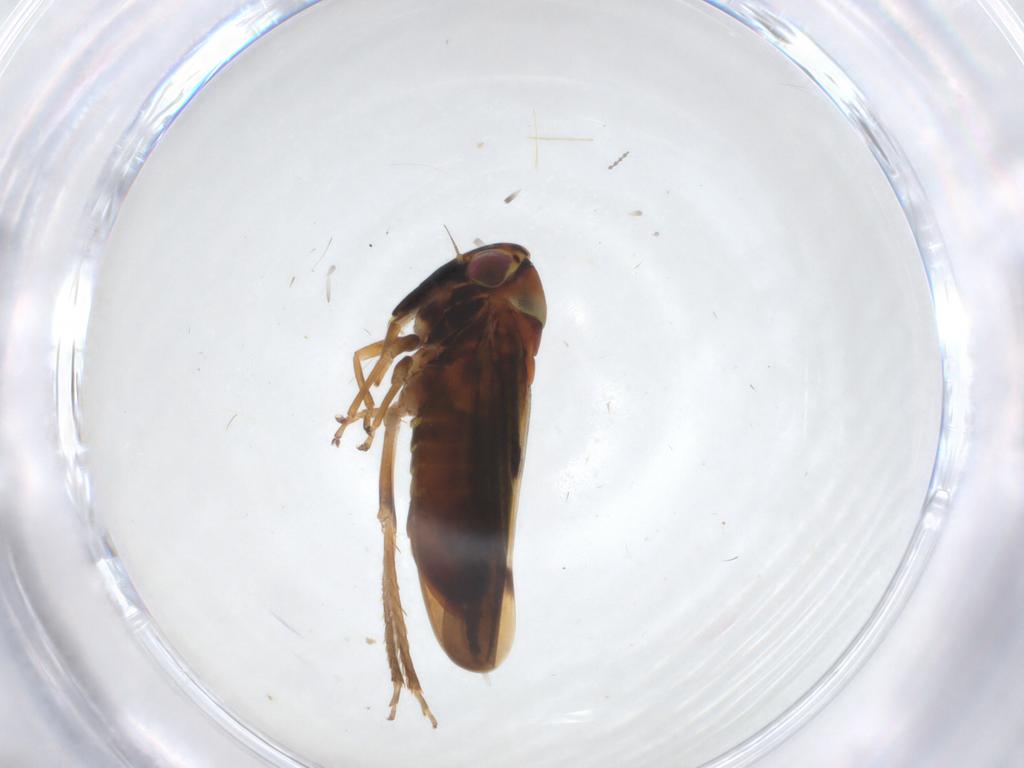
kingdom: Animalia
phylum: Arthropoda
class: Insecta
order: Hemiptera
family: Cicadellidae
